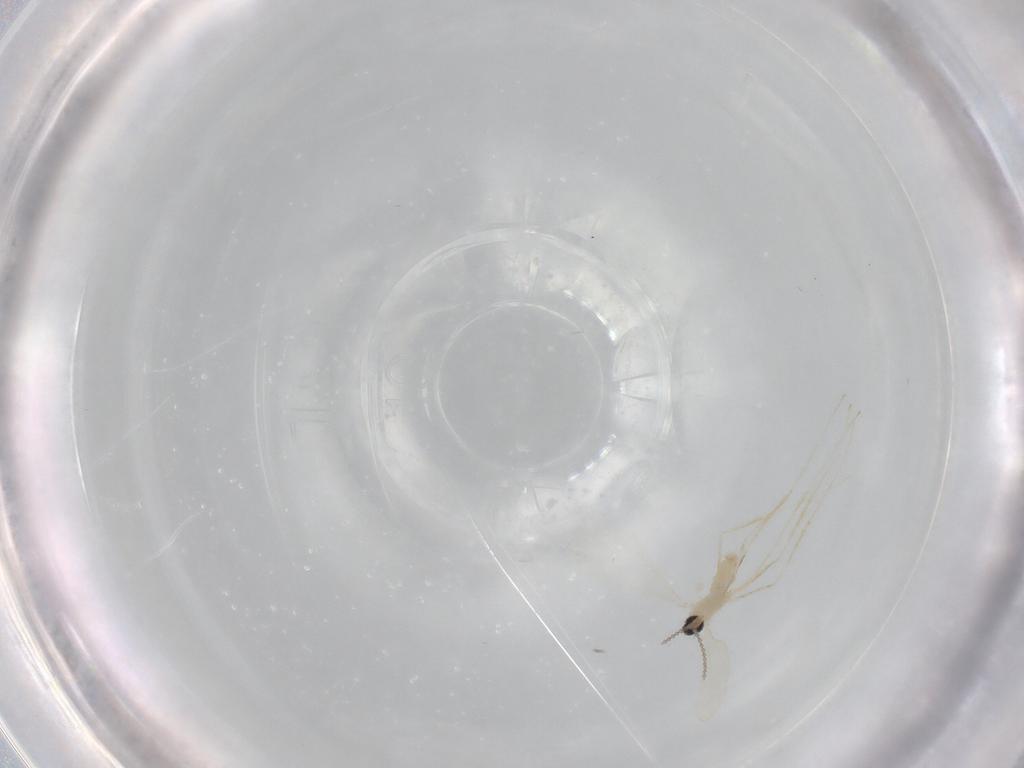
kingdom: Animalia
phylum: Arthropoda
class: Insecta
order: Diptera
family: Cecidomyiidae
